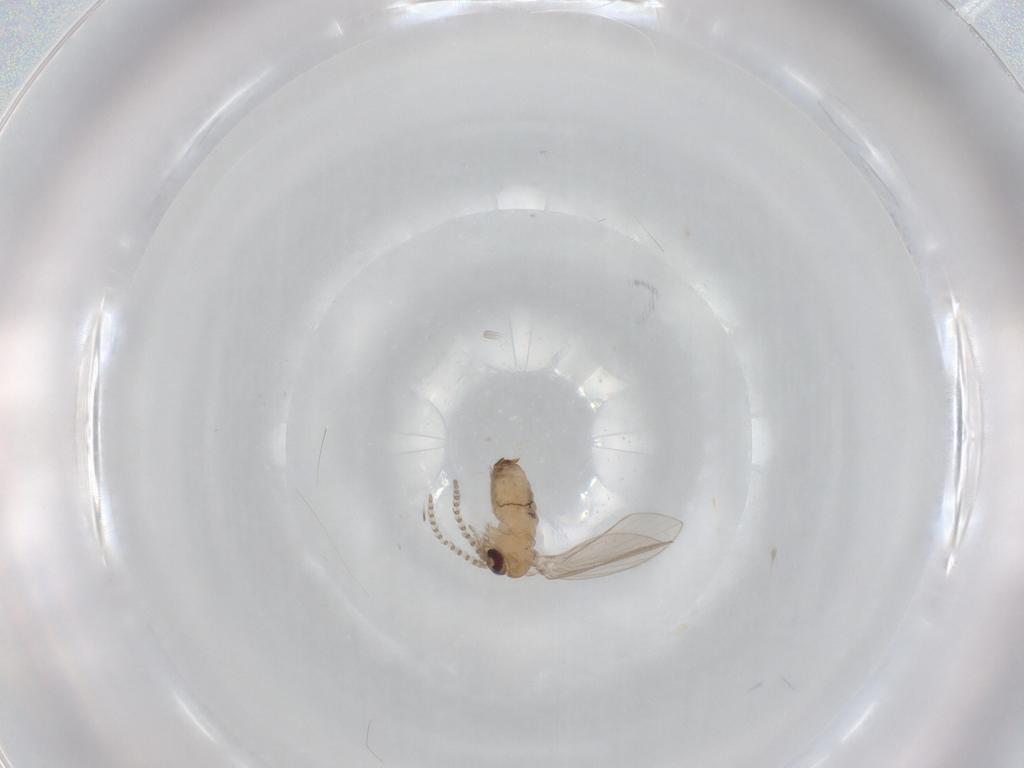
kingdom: Animalia
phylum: Arthropoda
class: Insecta
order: Diptera
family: Psychodidae
